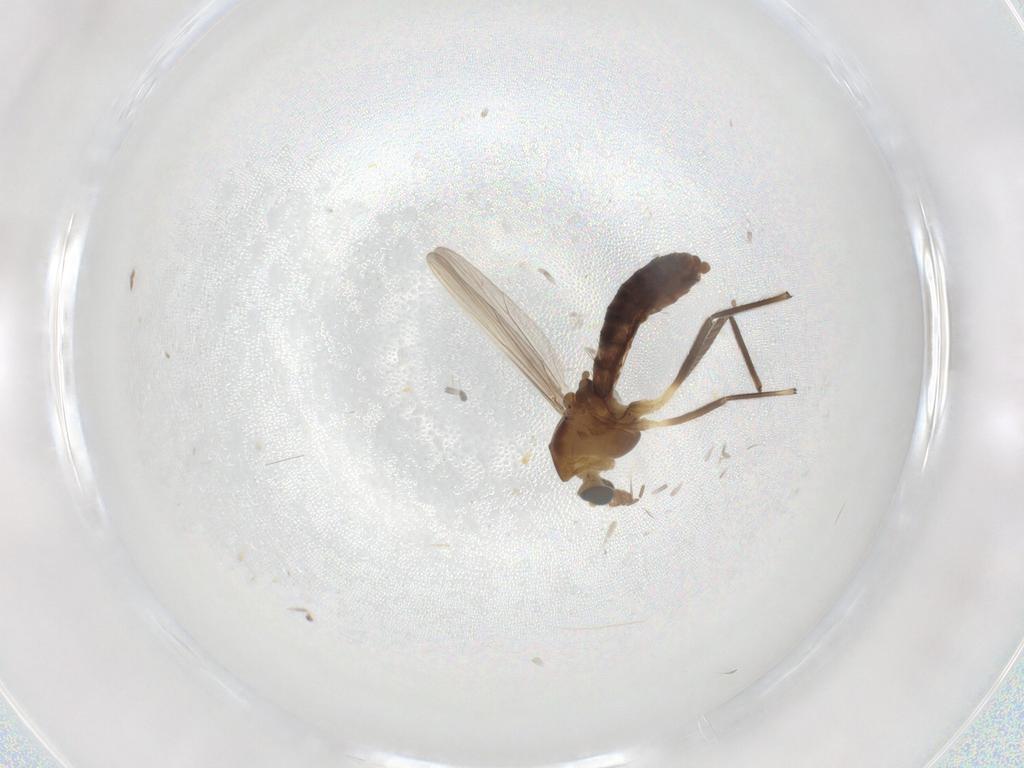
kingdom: Animalia
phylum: Arthropoda
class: Insecta
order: Diptera
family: Chironomidae
